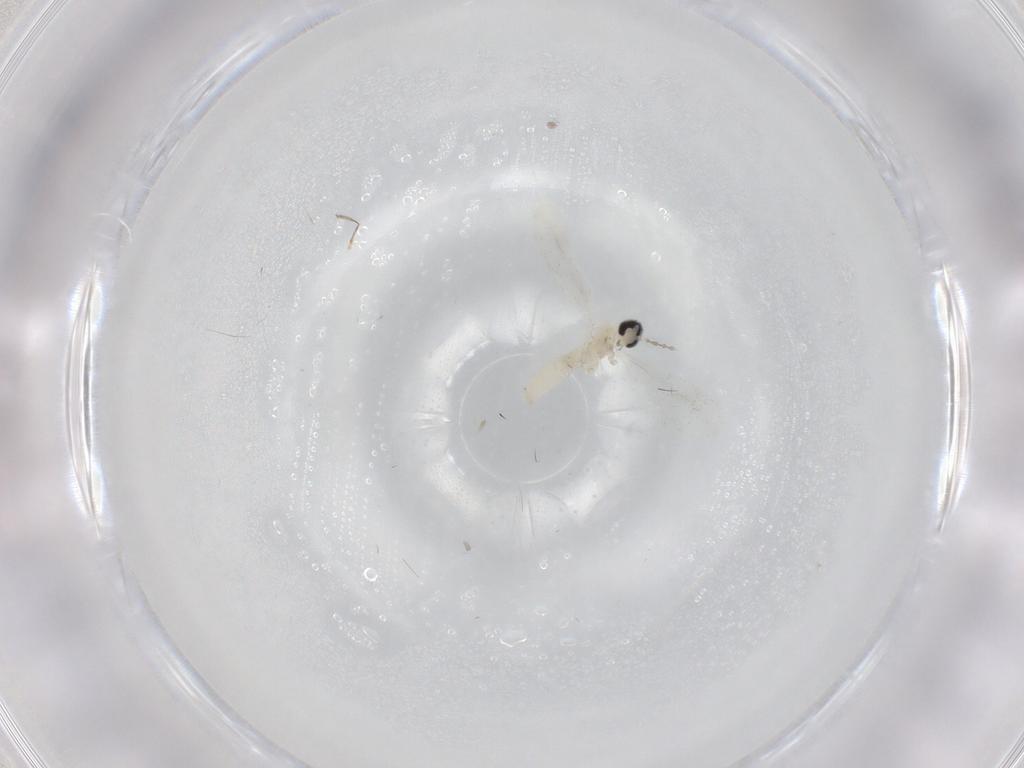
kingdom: Animalia
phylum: Arthropoda
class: Insecta
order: Diptera
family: Cecidomyiidae
